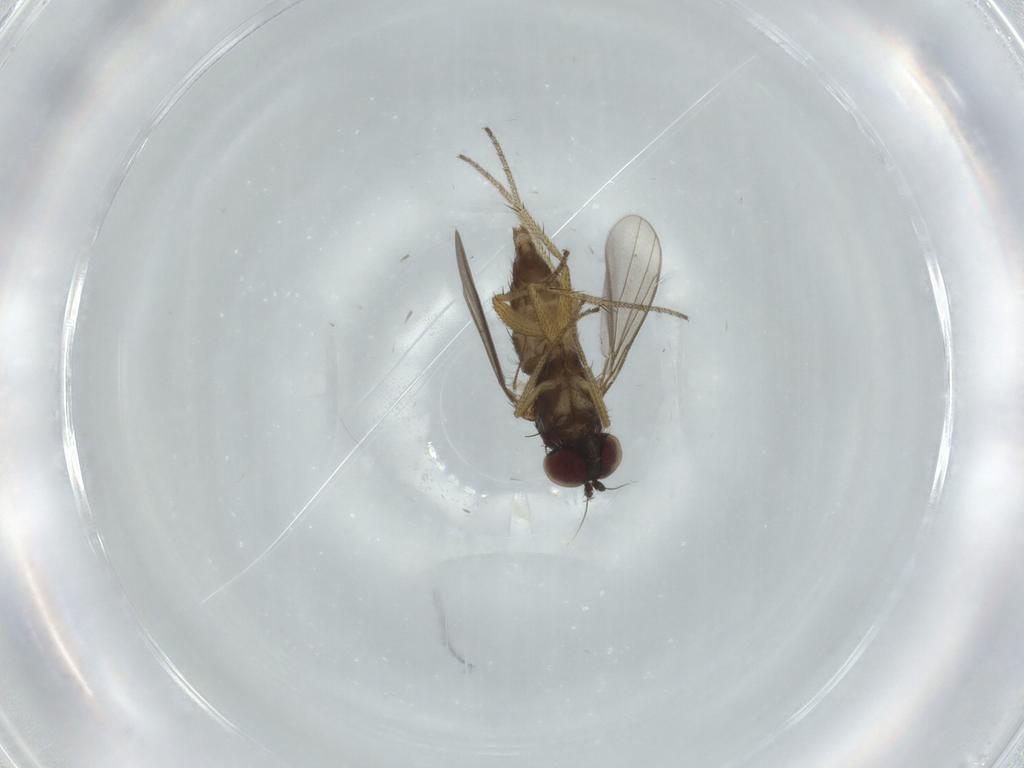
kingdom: Animalia
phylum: Arthropoda
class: Insecta
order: Diptera
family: Dolichopodidae
